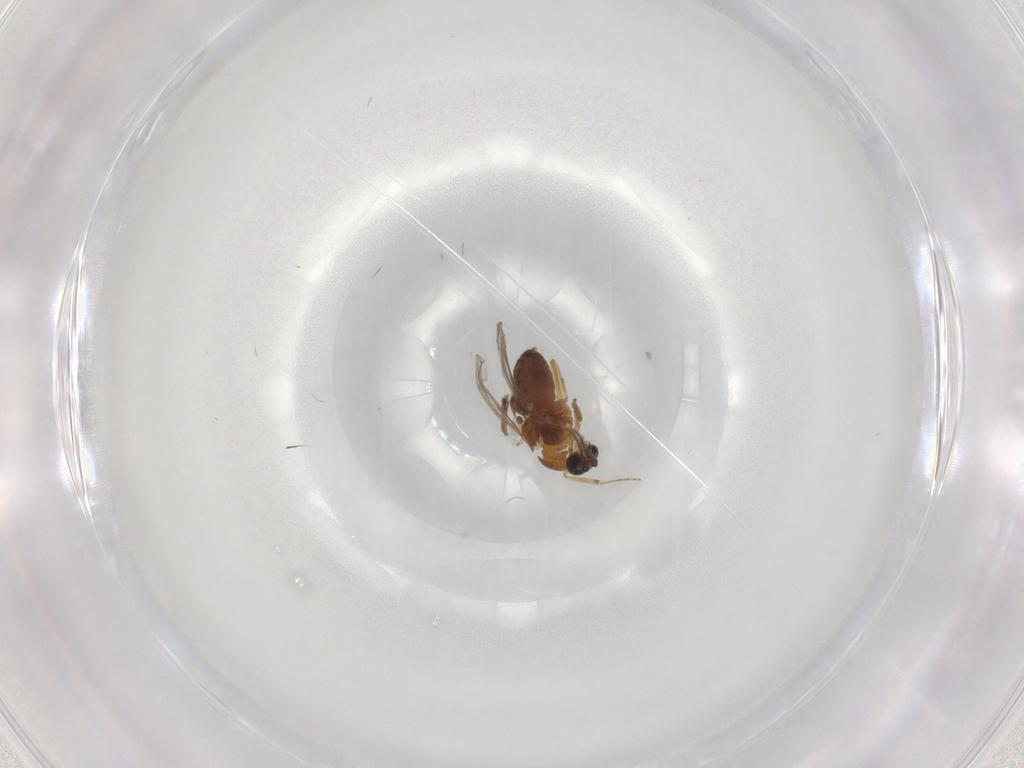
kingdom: Animalia
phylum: Arthropoda
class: Insecta
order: Diptera
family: Ceratopogonidae
